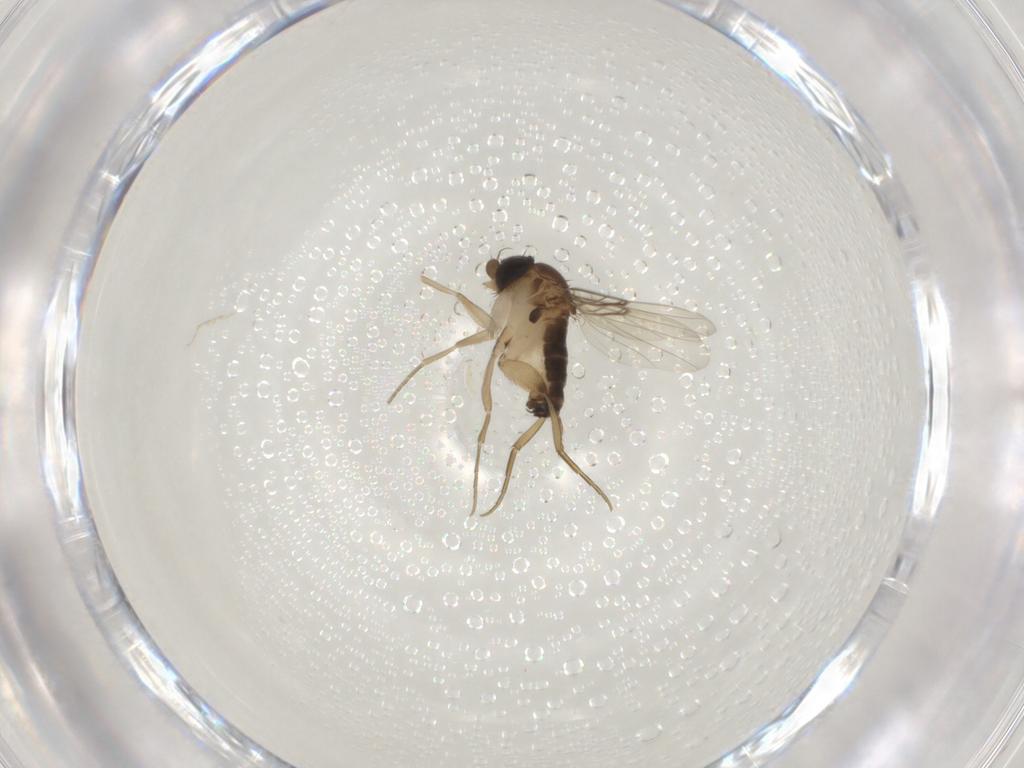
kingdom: Animalia
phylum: Arthropoda
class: Insecta
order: Diptera
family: Phoridae
